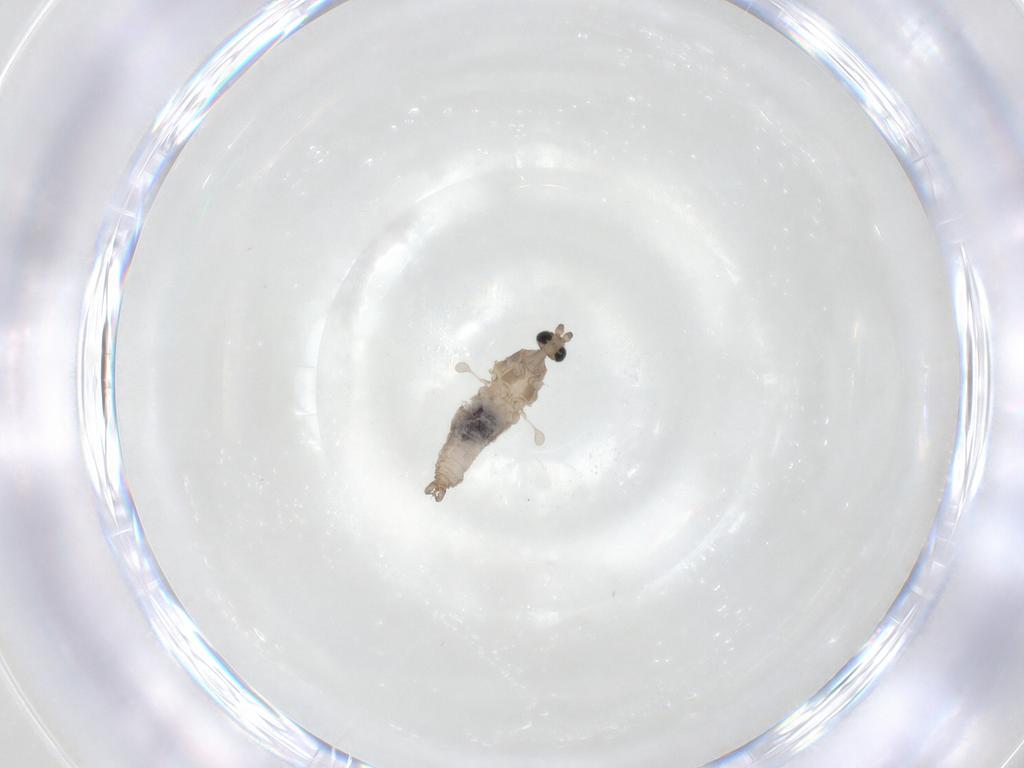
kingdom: Animalia
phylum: Arthropoda
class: Insecta
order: Diptera
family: Cecidomyiidae
